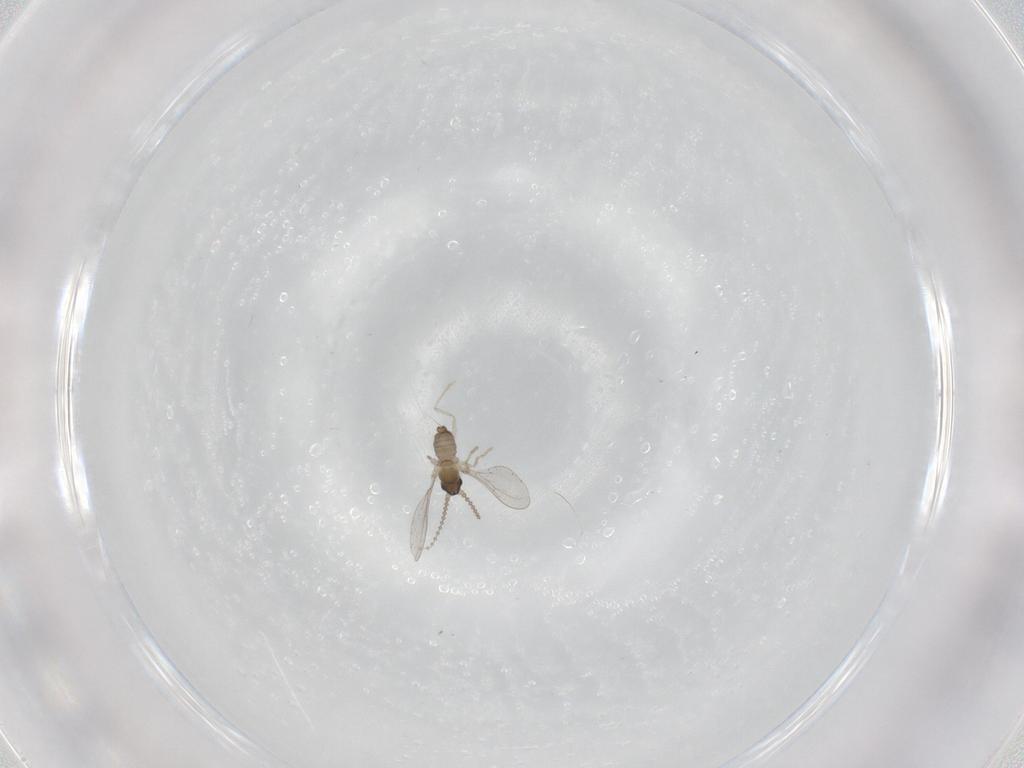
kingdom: Animalia
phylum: Arthropoda
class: Insecta
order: Diptera
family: Cecidomyiidae
